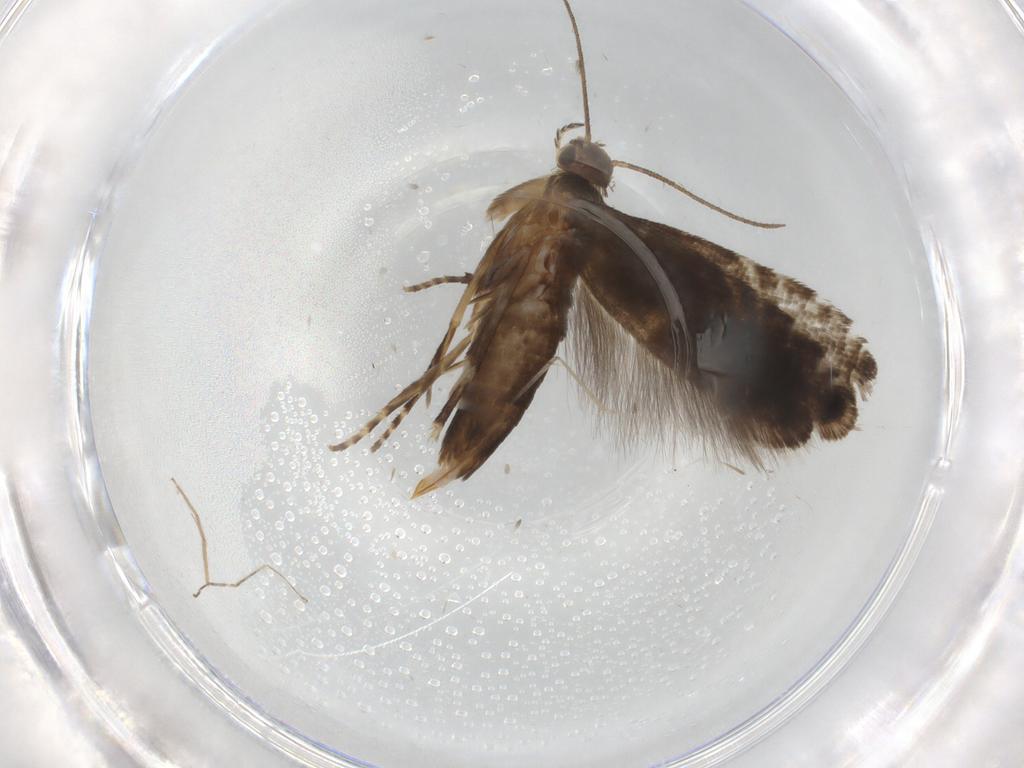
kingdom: Animalia
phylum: Arthropoda
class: Insecta
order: Lepidoptera
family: Glyphipterigidae
